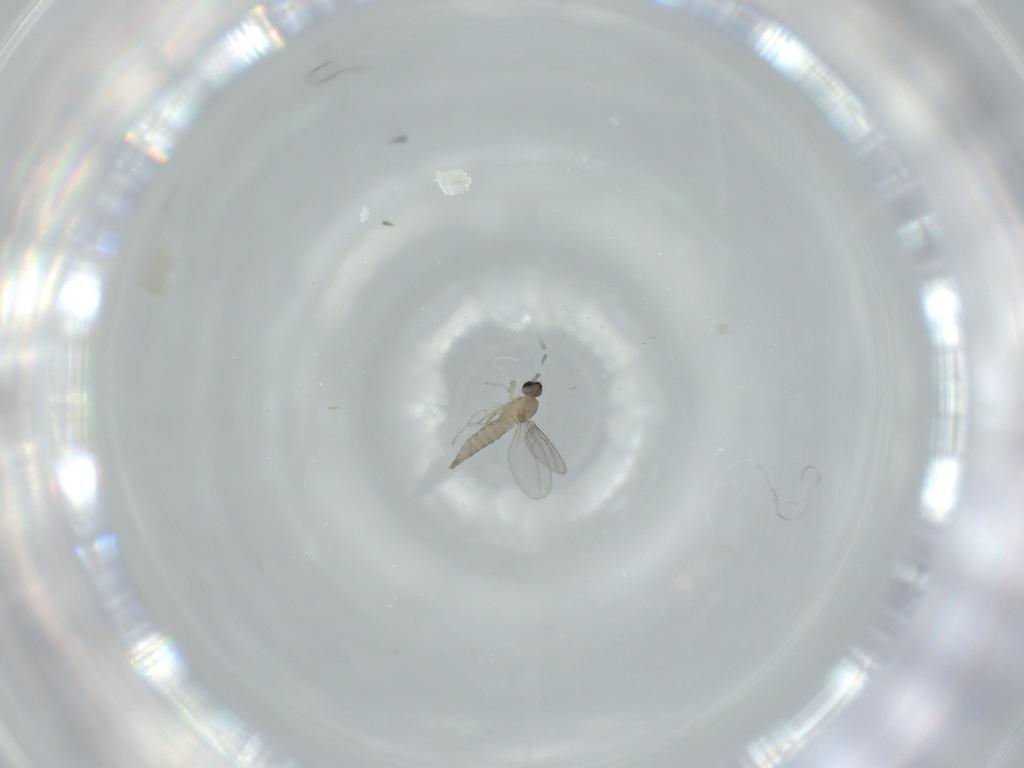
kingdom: Animalia
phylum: Arthropoda
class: Insecta
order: Diptera
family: Cecidomyiidae
